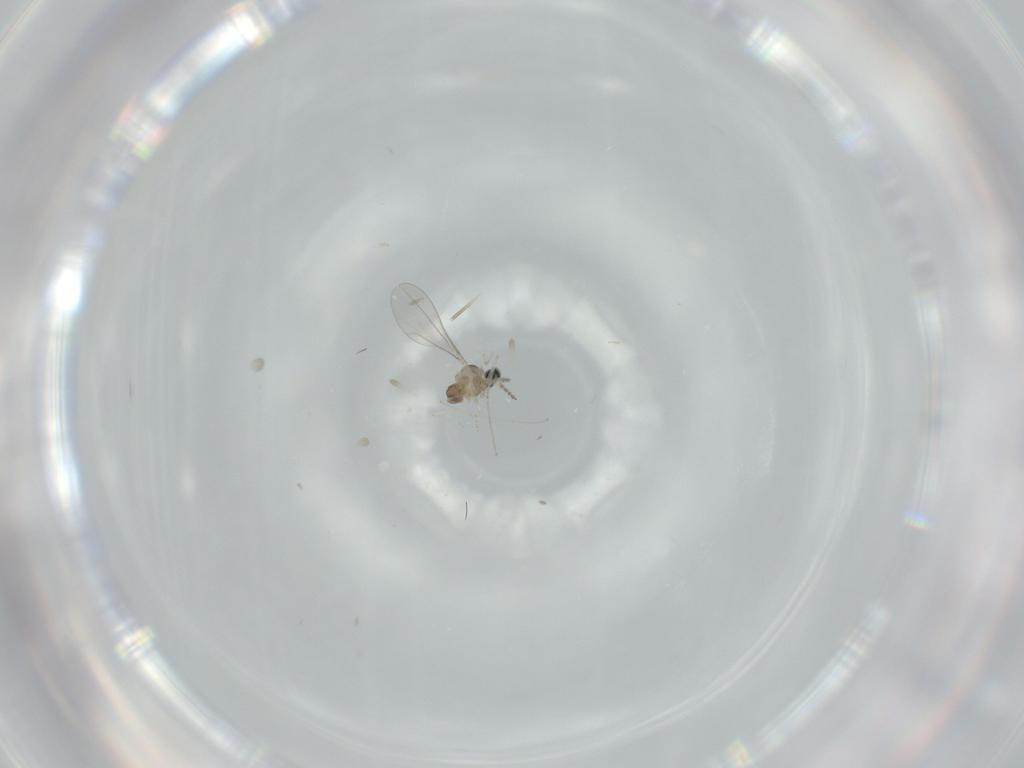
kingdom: Animalia
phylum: Arthropoda
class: Insecta
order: Diptera
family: Cecidomyiidae
